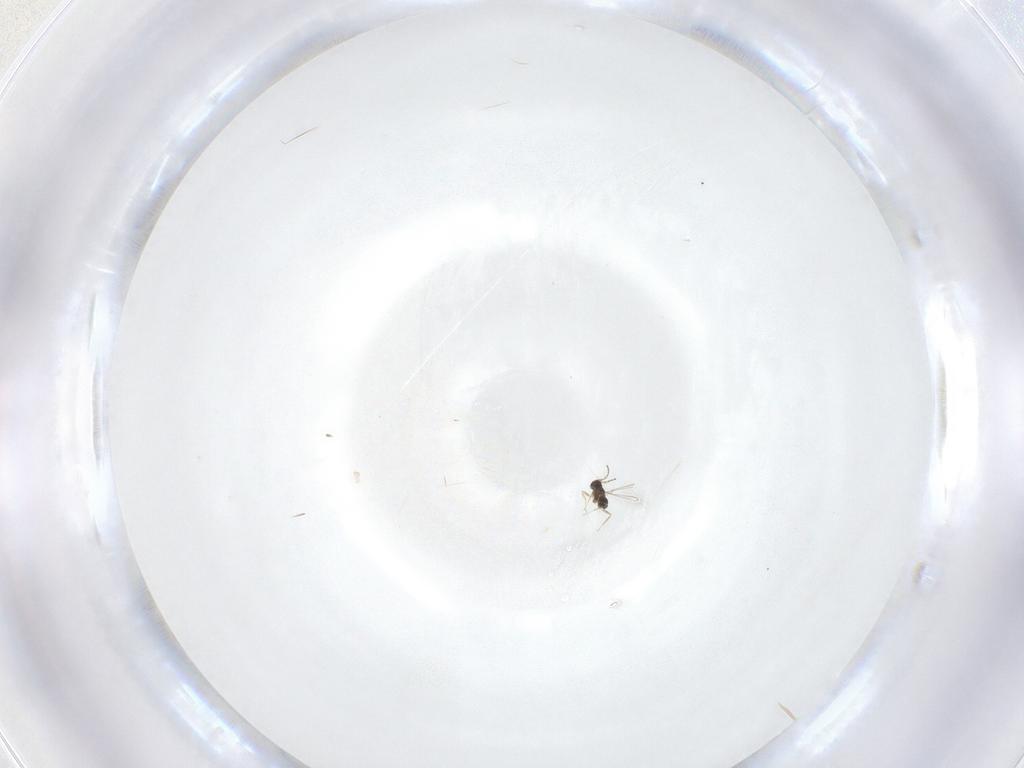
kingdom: Animalia
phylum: Arthropoda
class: Insecta
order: Hymenoptera
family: Mymaridae
